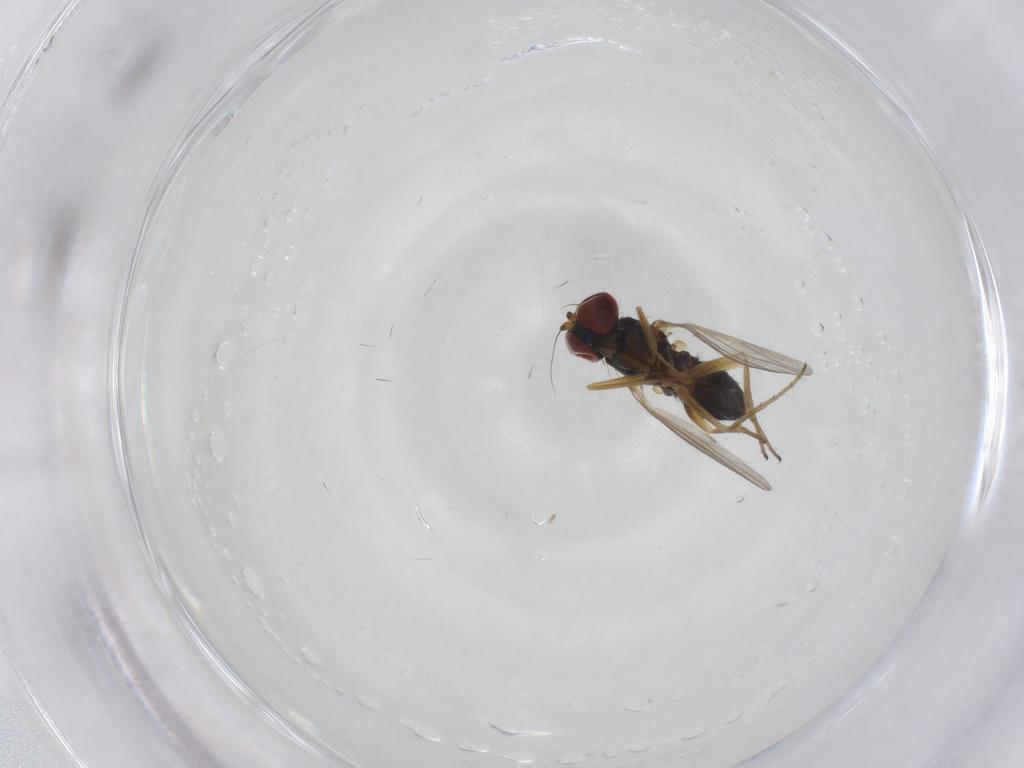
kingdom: Animalia
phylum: Arthropoda
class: Insecta
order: Diptera
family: Dolichopodidae
